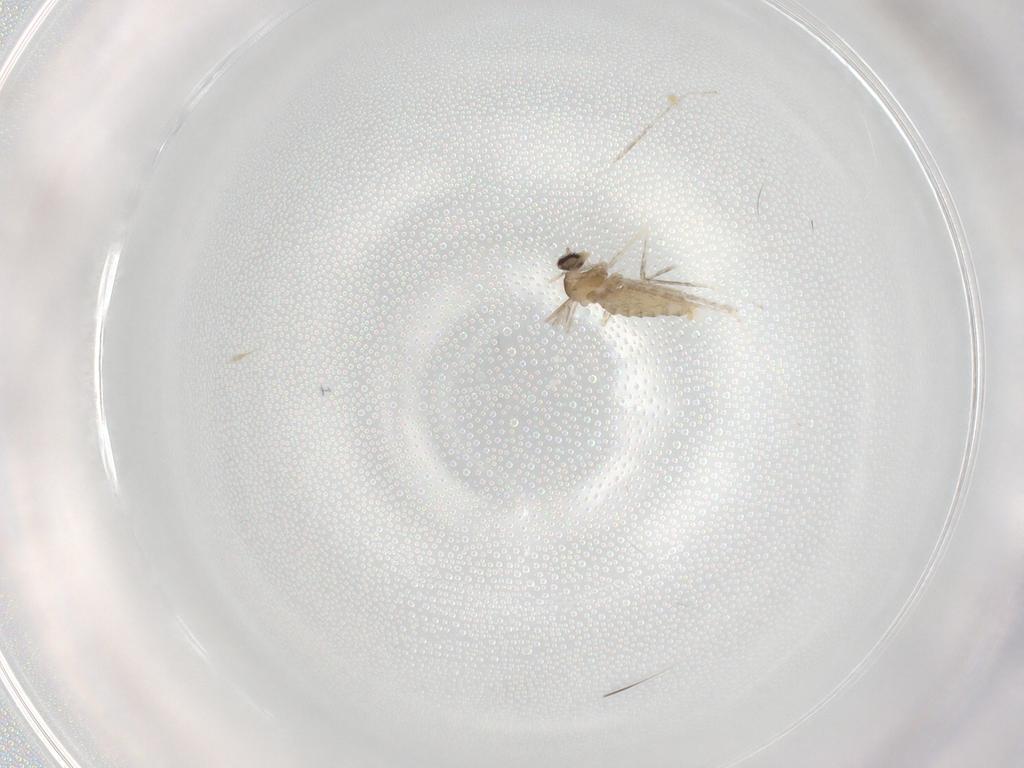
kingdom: Animalia
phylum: Arthropoda
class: Insecta
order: Diptera
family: Cecidomyiidae
